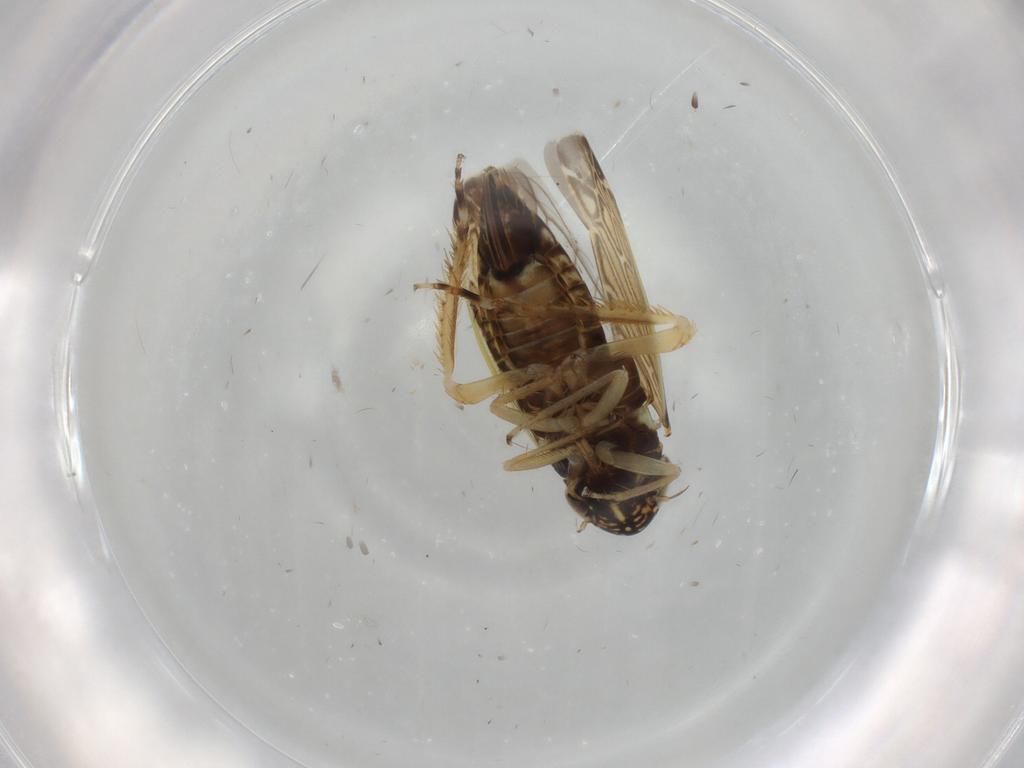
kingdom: Animalia
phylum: Arthropoda
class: Insecta
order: Hemiptera
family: Cicadellidae
